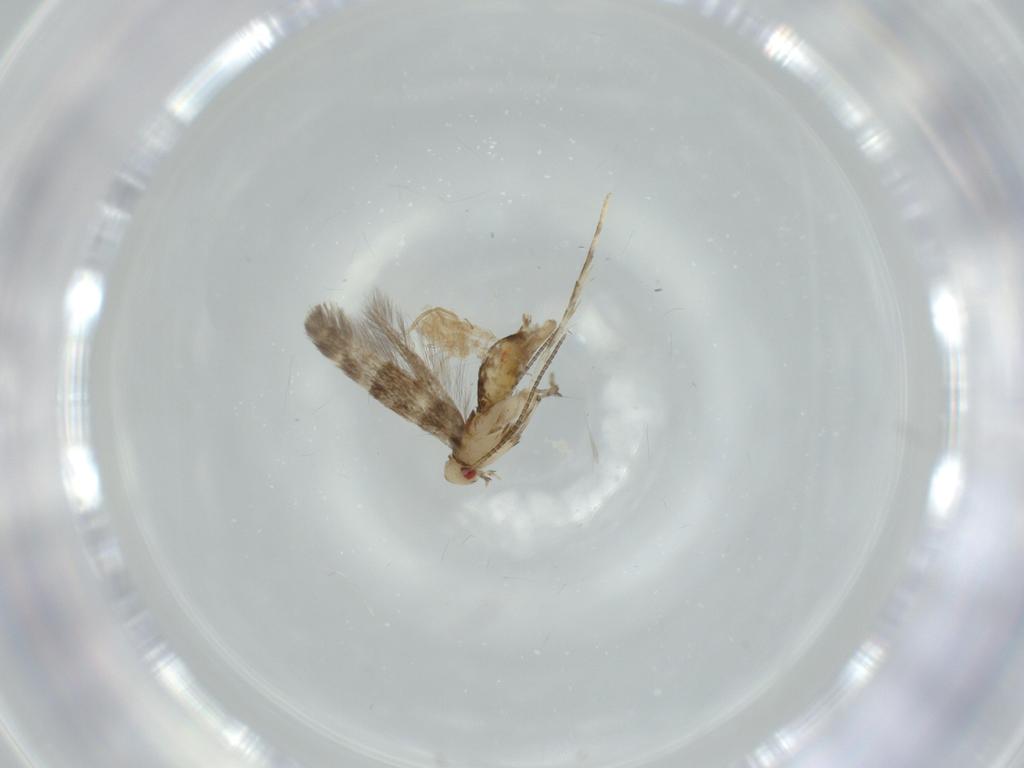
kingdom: Animalia
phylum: Arthropoda
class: Insecta
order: Lepidoptera
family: Gracillariidae
